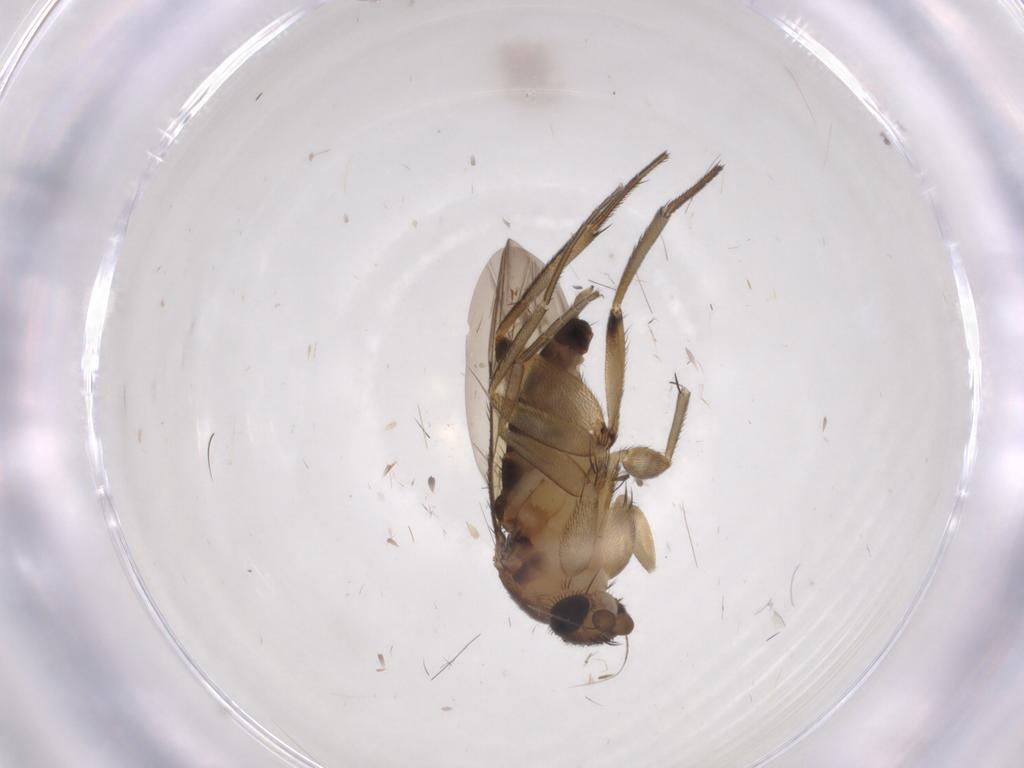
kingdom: Animalia
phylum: Arthropoda
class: Insecta
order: Diptera
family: Phoridae
